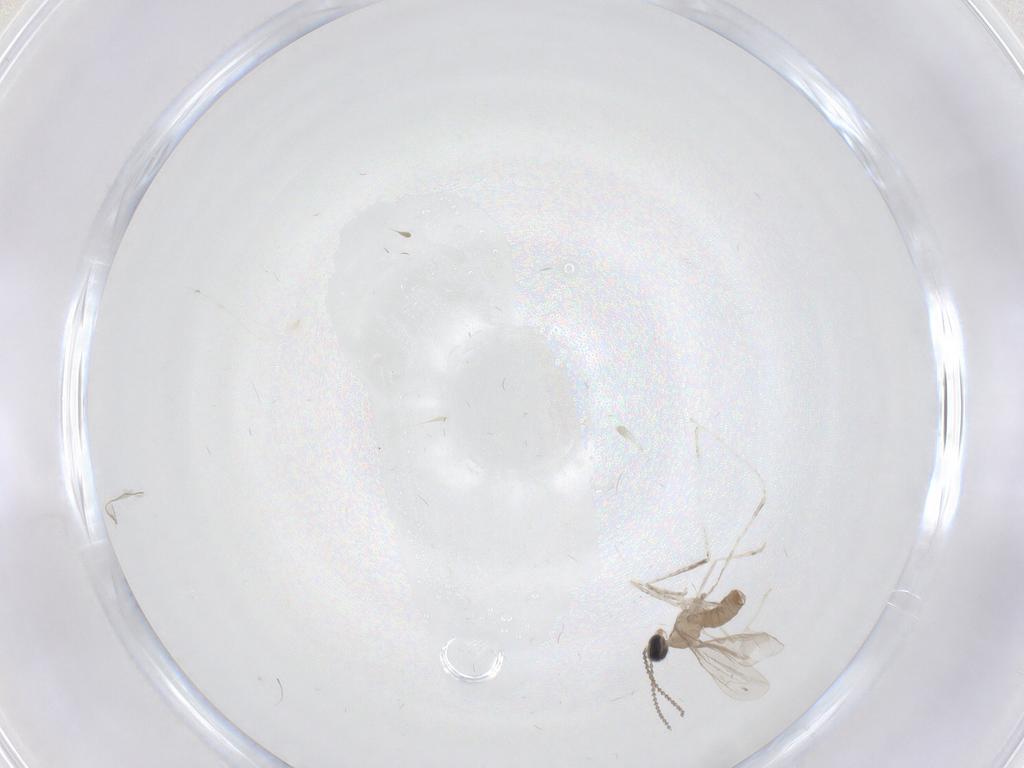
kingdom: Animalia
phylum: Arthropoda
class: Insecta
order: Diptera
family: Cecidomyiidae
